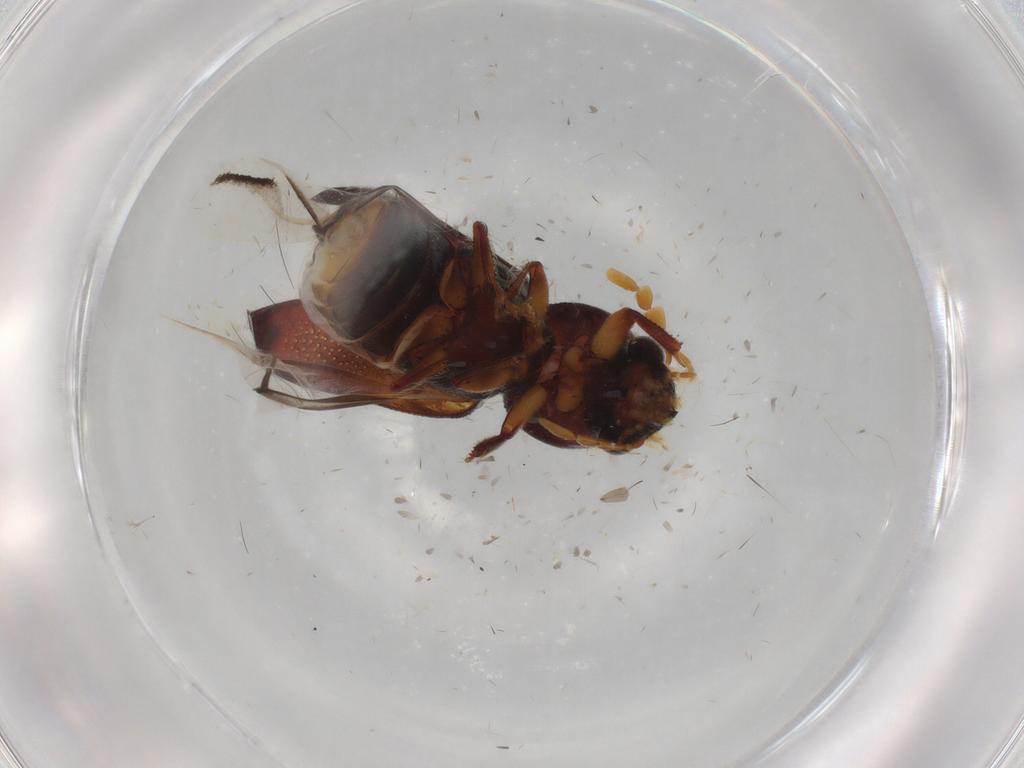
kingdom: Animalia
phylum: Arthropoda
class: Insecta
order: Coleoptera
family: Bostrichidae
